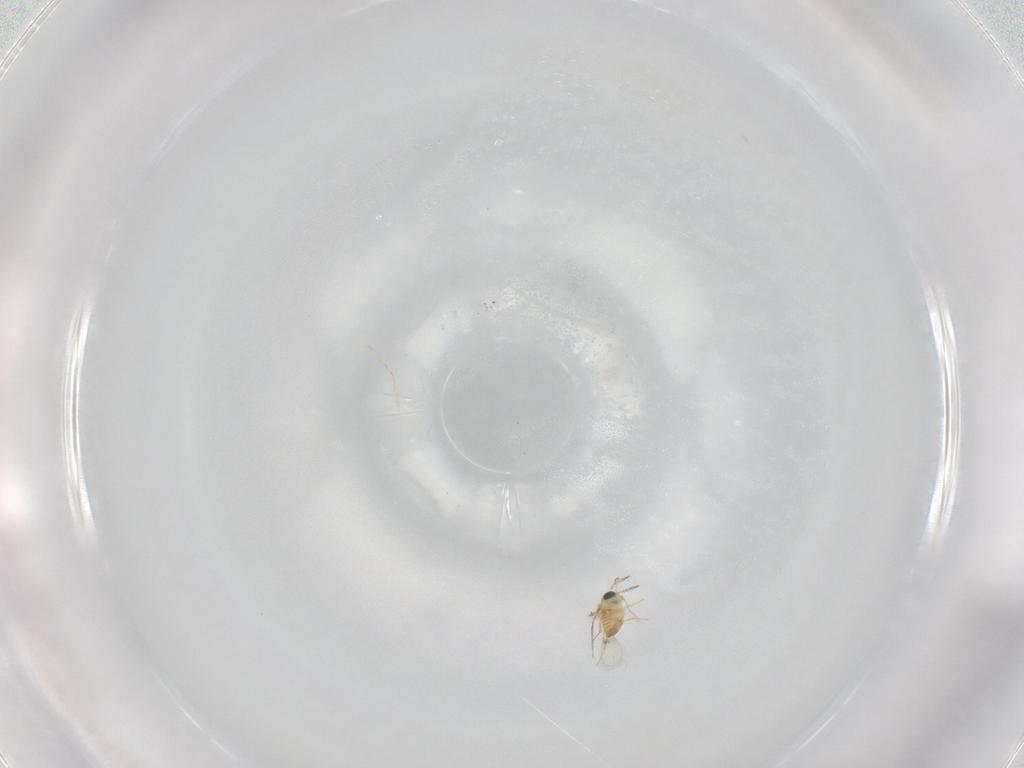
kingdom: Animalia
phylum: Arthropoda
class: Insecta
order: Hymenoptera
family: Trichogrammatidae
